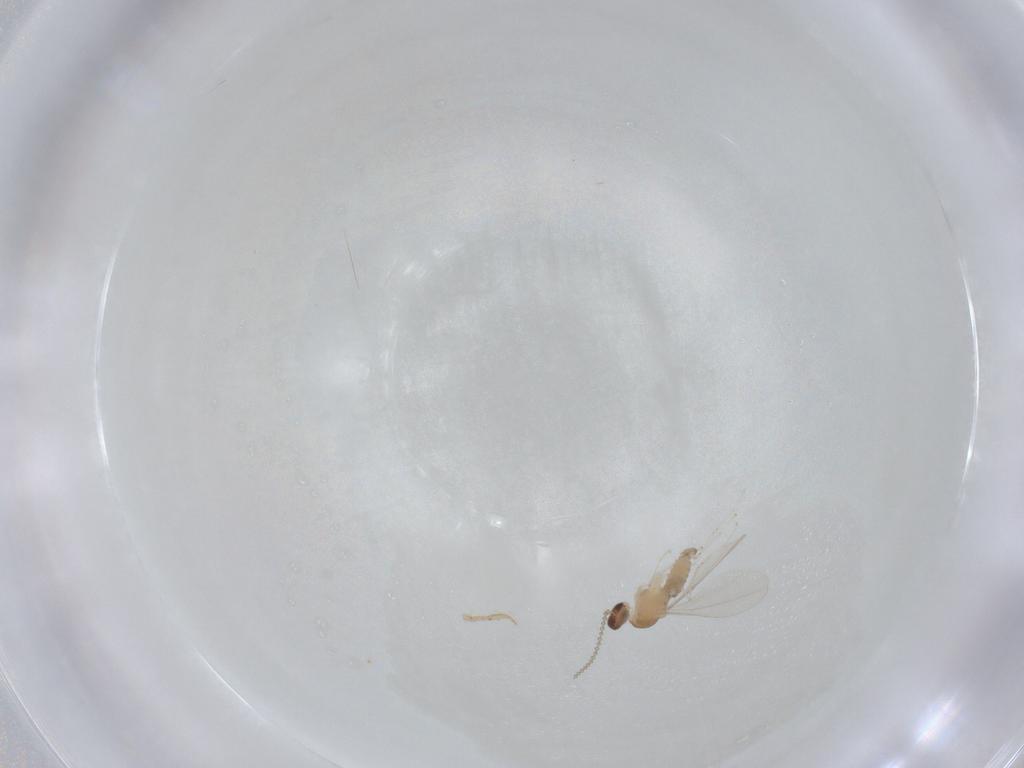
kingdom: Animalia
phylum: Arthropoda
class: Insecta
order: Diptera
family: Cecidomyiidae
